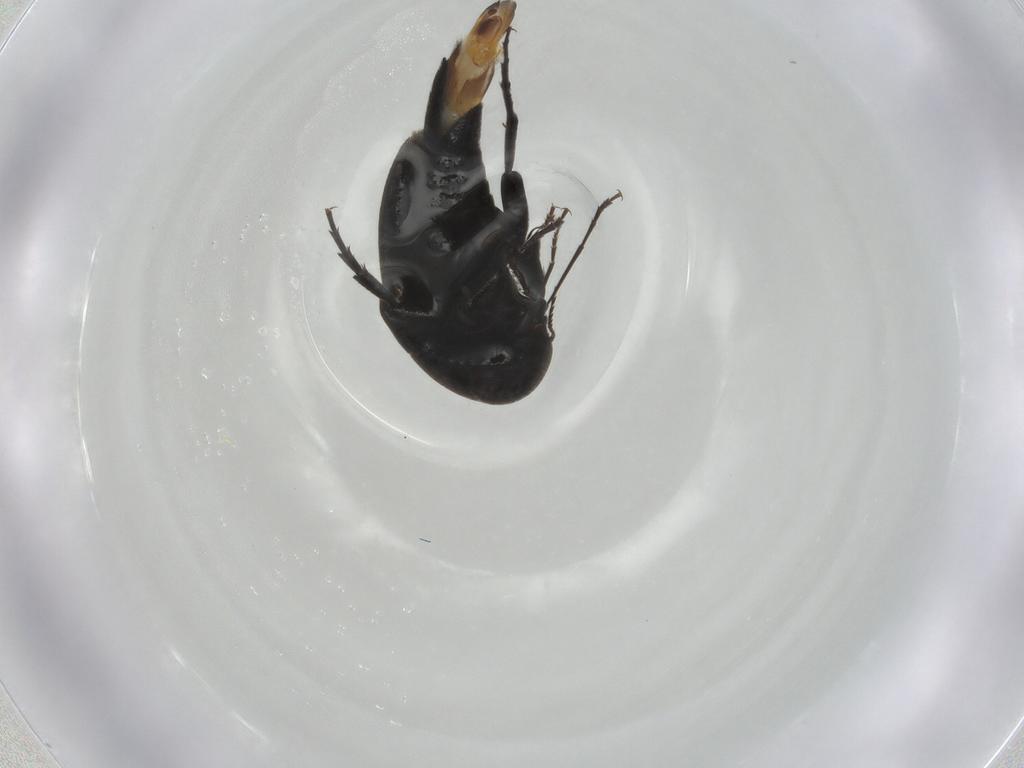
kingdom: Animalia
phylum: Arthropoda
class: Insecta
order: Coleoptera
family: Mordellidae
